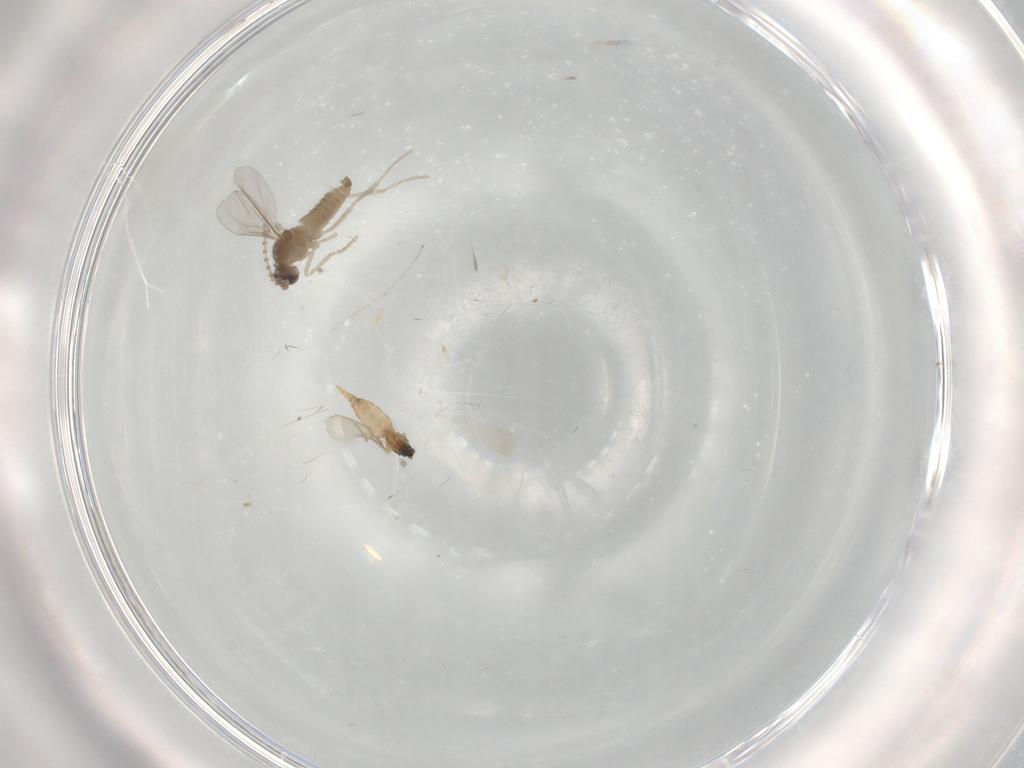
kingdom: Animalia
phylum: Arthropoda
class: Insecta
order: Diptera
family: Cecidomyiidae
